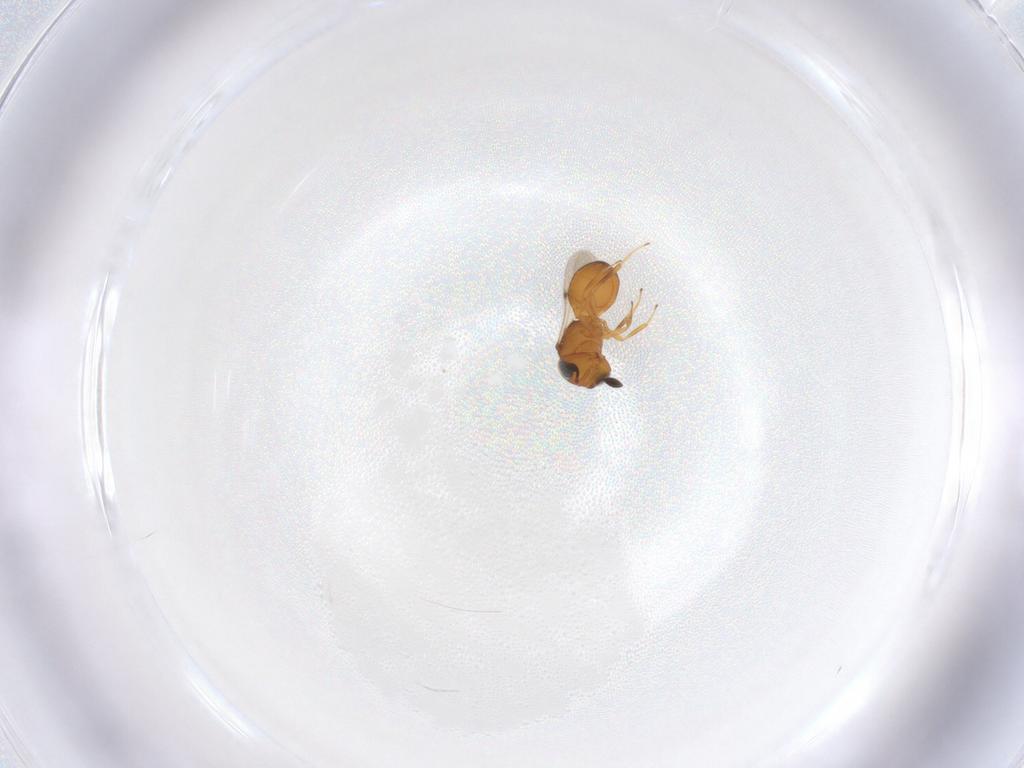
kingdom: Animalia
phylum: Arthropoda
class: Insecta
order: Hymenoptera
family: Scelionidae
